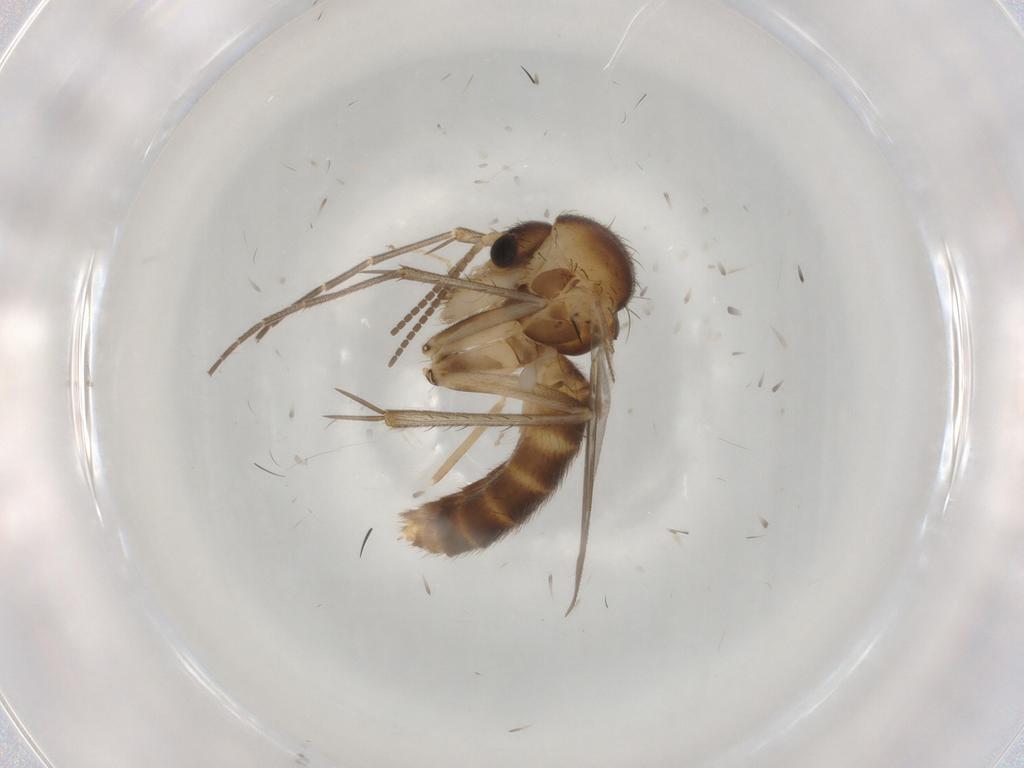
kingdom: Animalia
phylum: Arthropoda
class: Insecta
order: Diptera
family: Mycetophilidae
